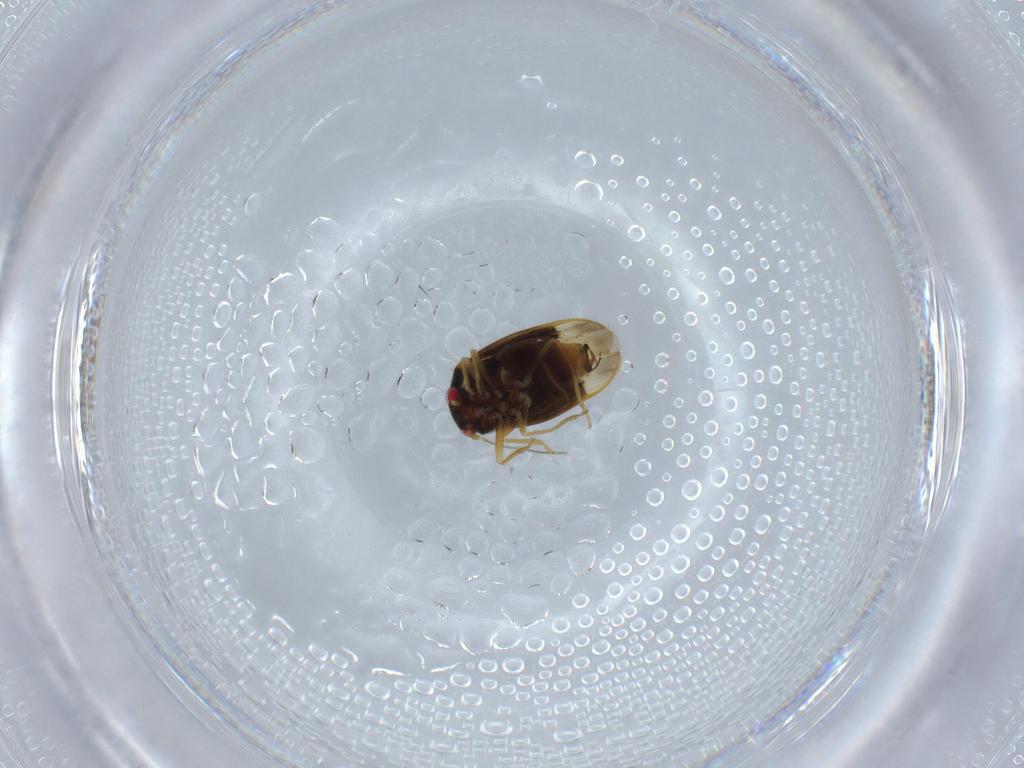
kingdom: Animalia
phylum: Arthropoda
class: Insecta
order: Hemiptera
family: Schizopteridae
